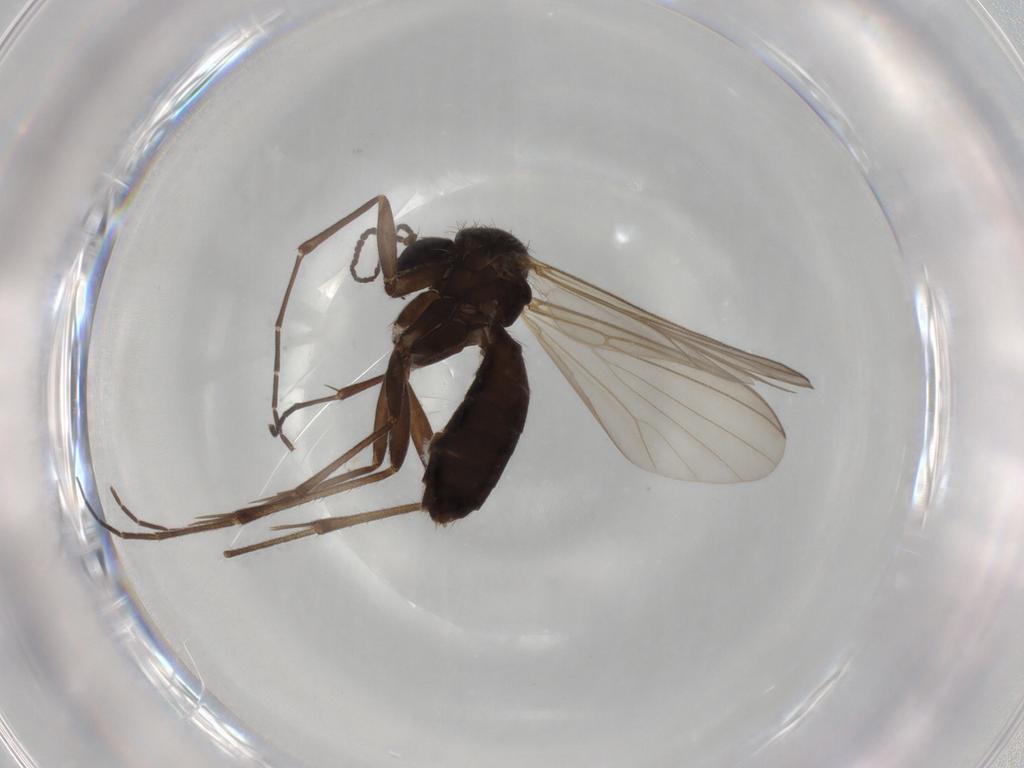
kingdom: Animalia
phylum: Arthropoda
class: Insecta
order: Diptera
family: Mycetophilidae
